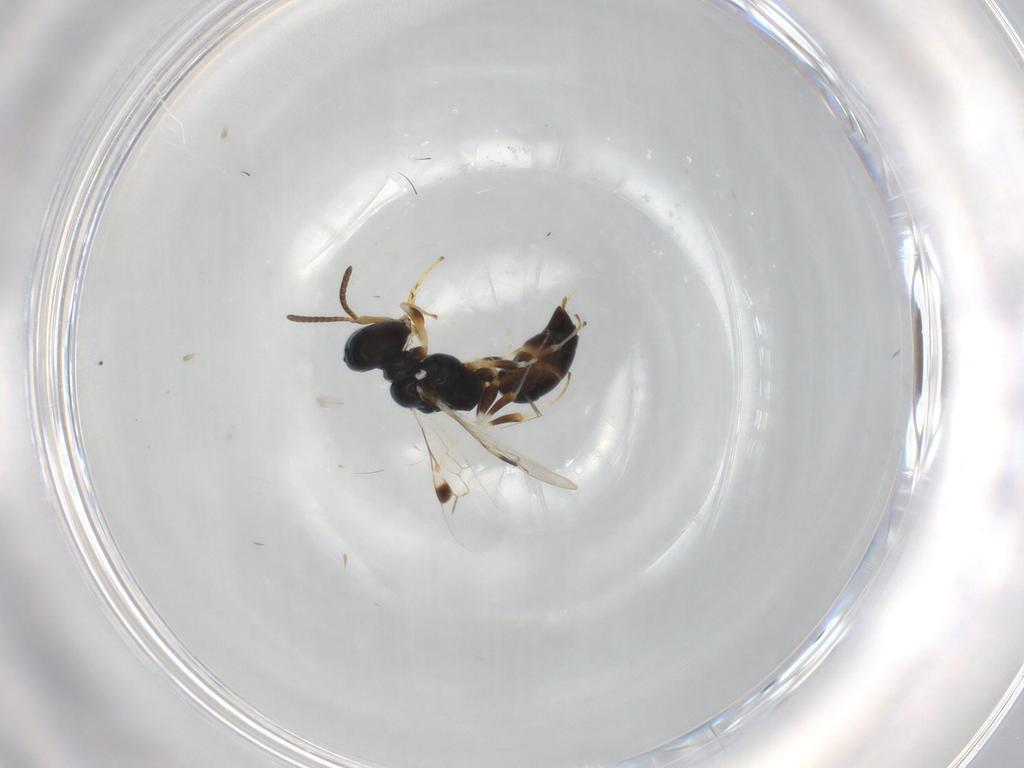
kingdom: Animalia
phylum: Arthropoda
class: Insecta
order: Hymenoptera
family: Pemphredonidae
